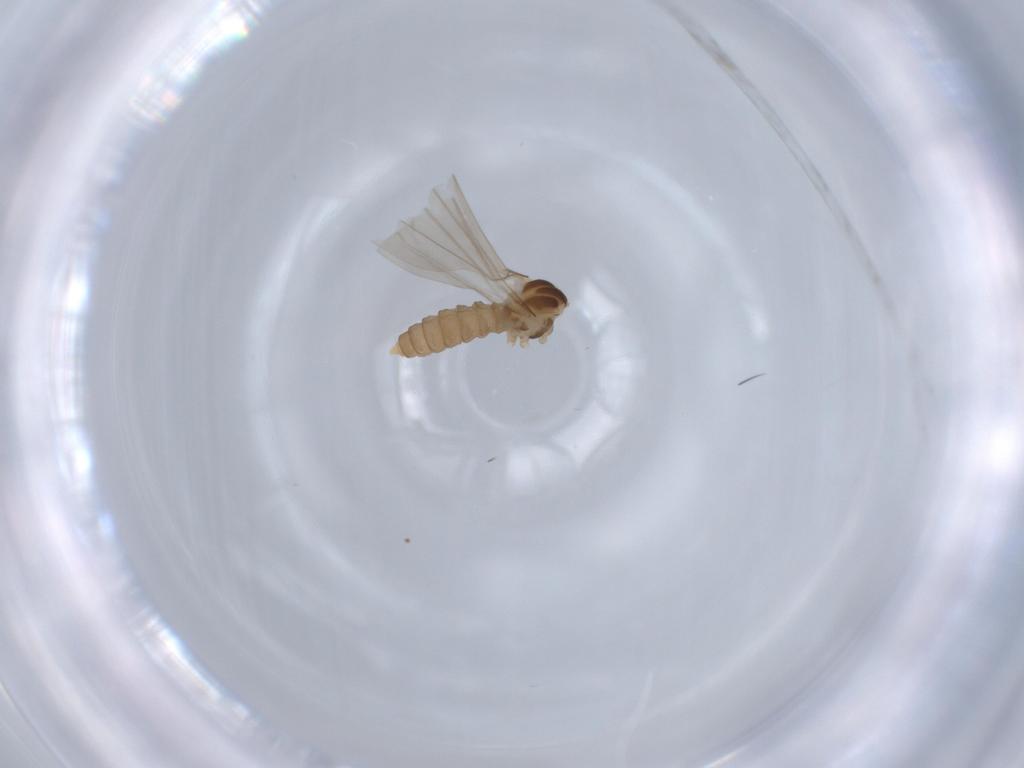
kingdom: Animalia
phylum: Arthropoda
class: Insecta
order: Diptera
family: Cecidomyiidae
